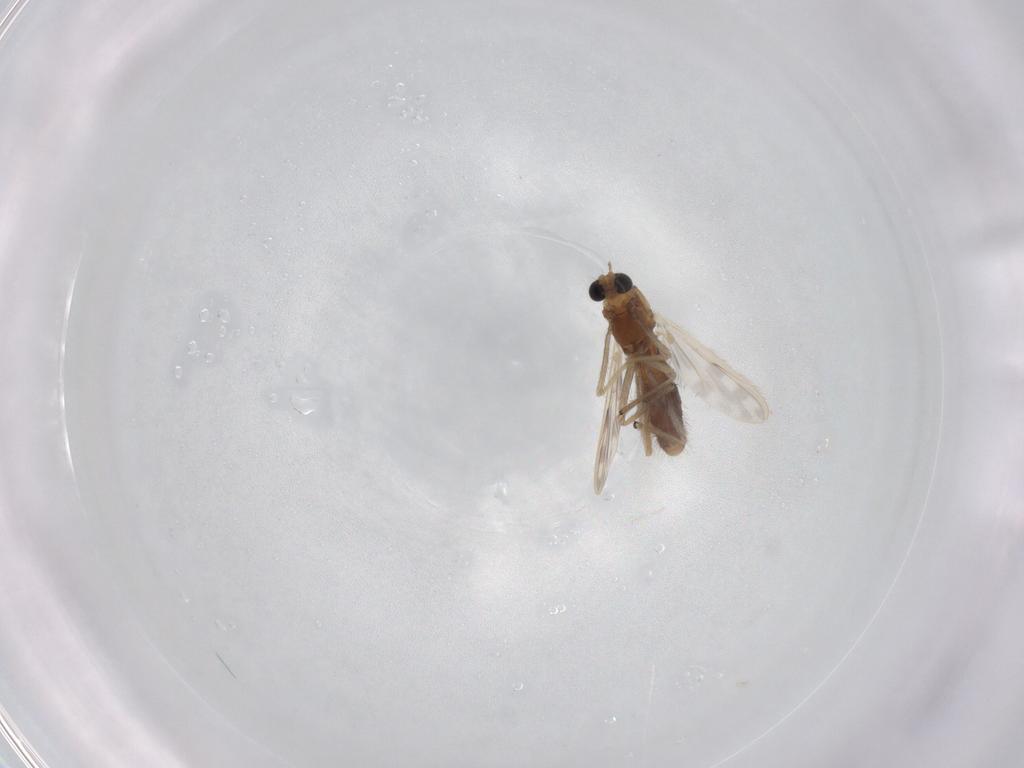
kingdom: Animalia
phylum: Arthropoda
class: Insecta
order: Diptera
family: Chironomidae
